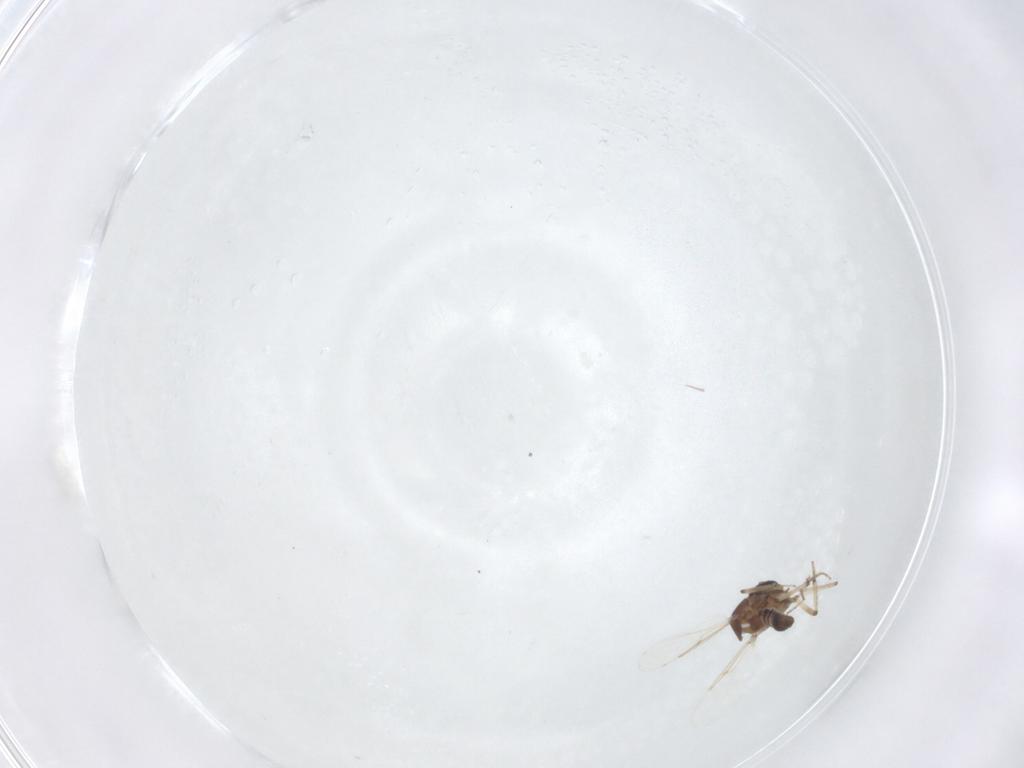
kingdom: Animalia
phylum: Arthropoda
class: Insecta
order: Diptera
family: Ceratopogonidae
